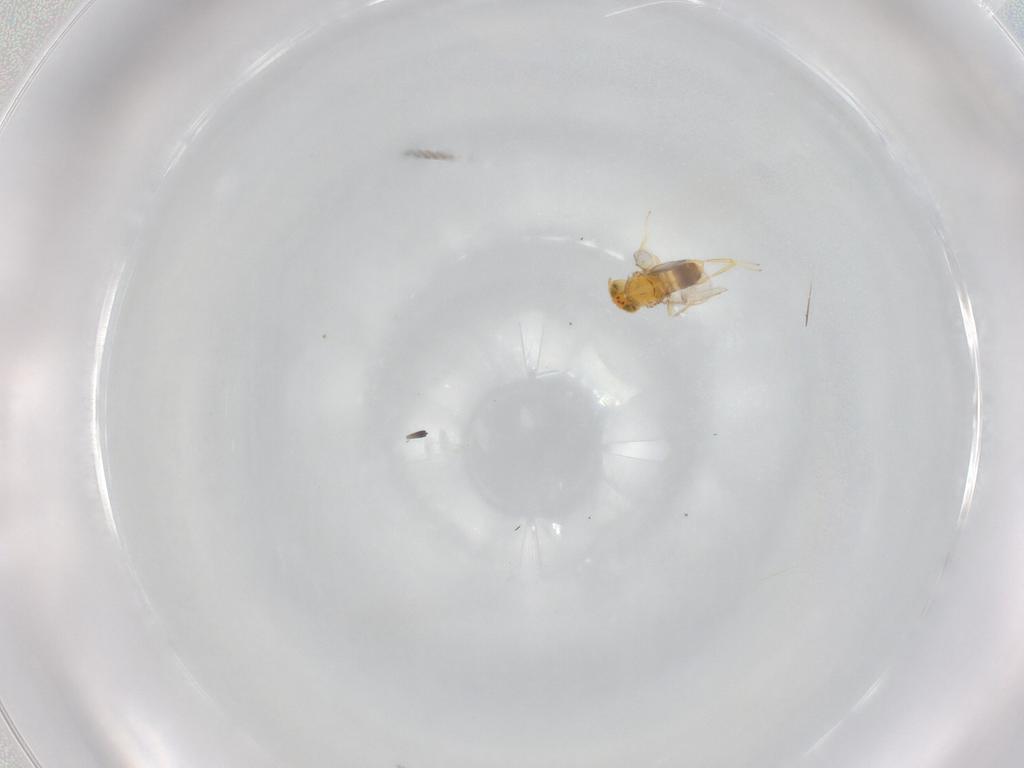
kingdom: Animalia
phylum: Arthropoda
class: Insecta
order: Hymenoptera
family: Aphelinidae
